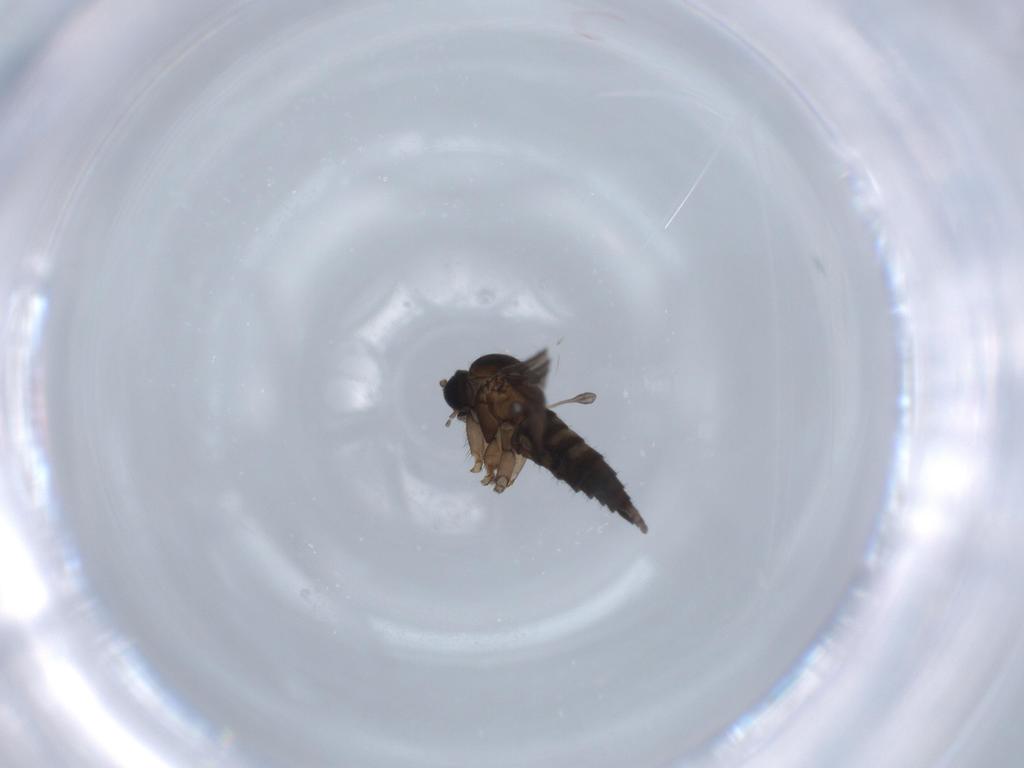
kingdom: Animalia
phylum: Arthropoda
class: Insecta
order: Diptera
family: Sciaridae
